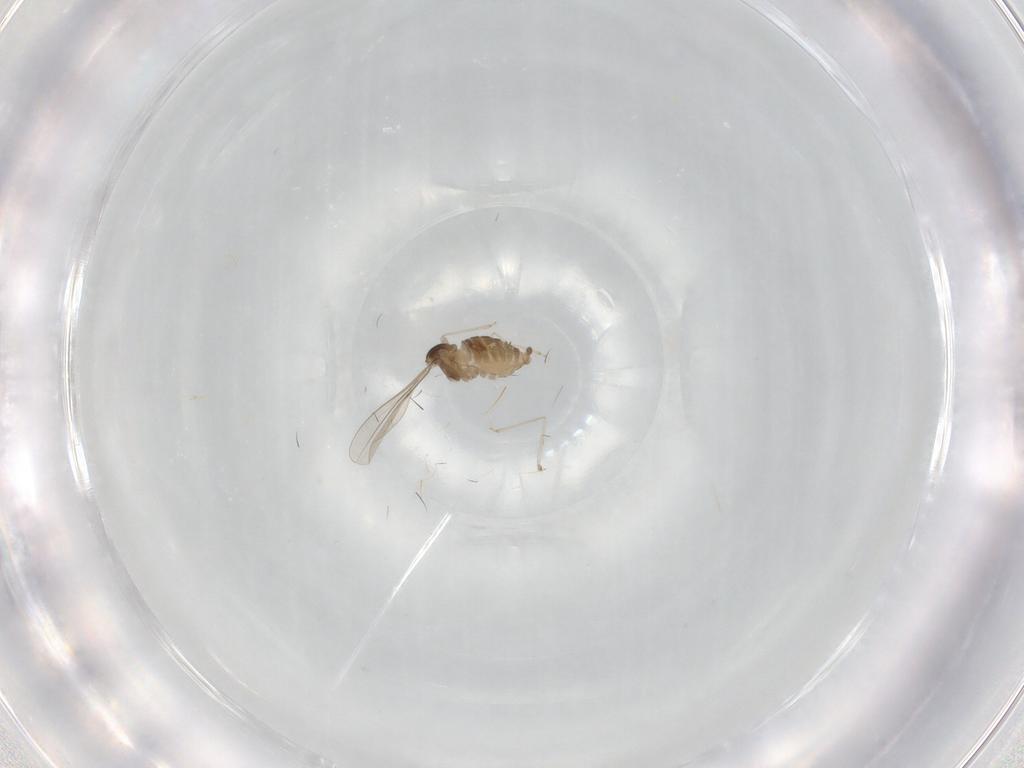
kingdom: Animalia
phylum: Arthropoda
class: Insecta
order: Diptera
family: Cecidomyiidae
